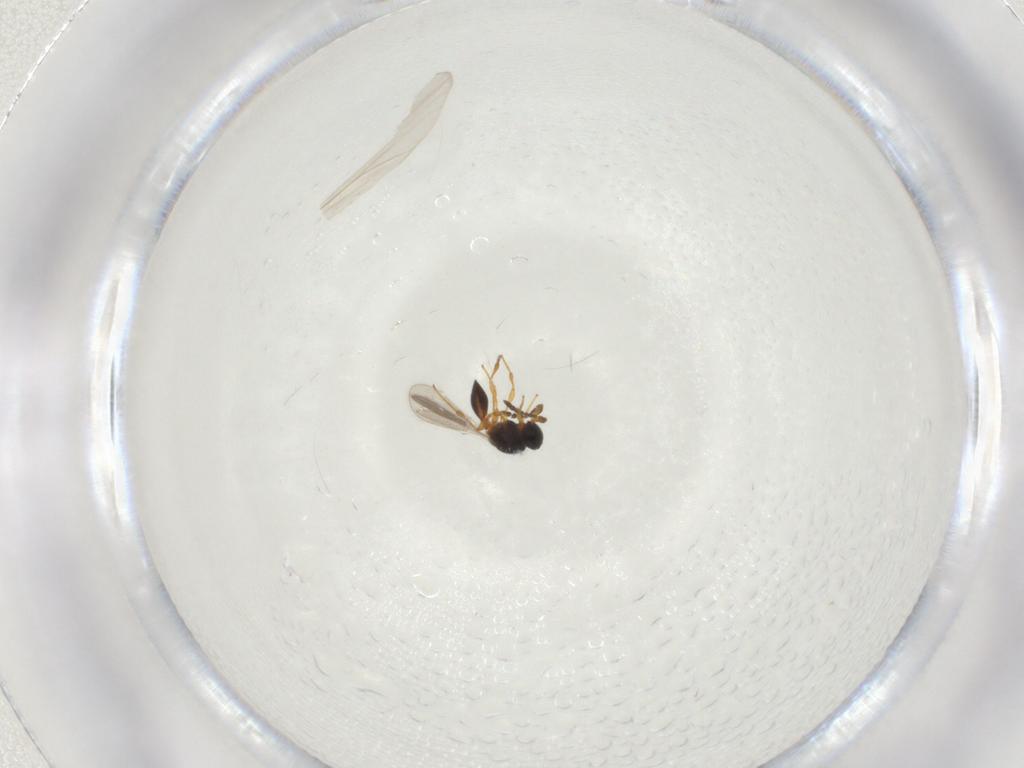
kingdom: Animalia
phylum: Arthropoda
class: Insecta
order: Hymenoptera
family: Platygastridae
